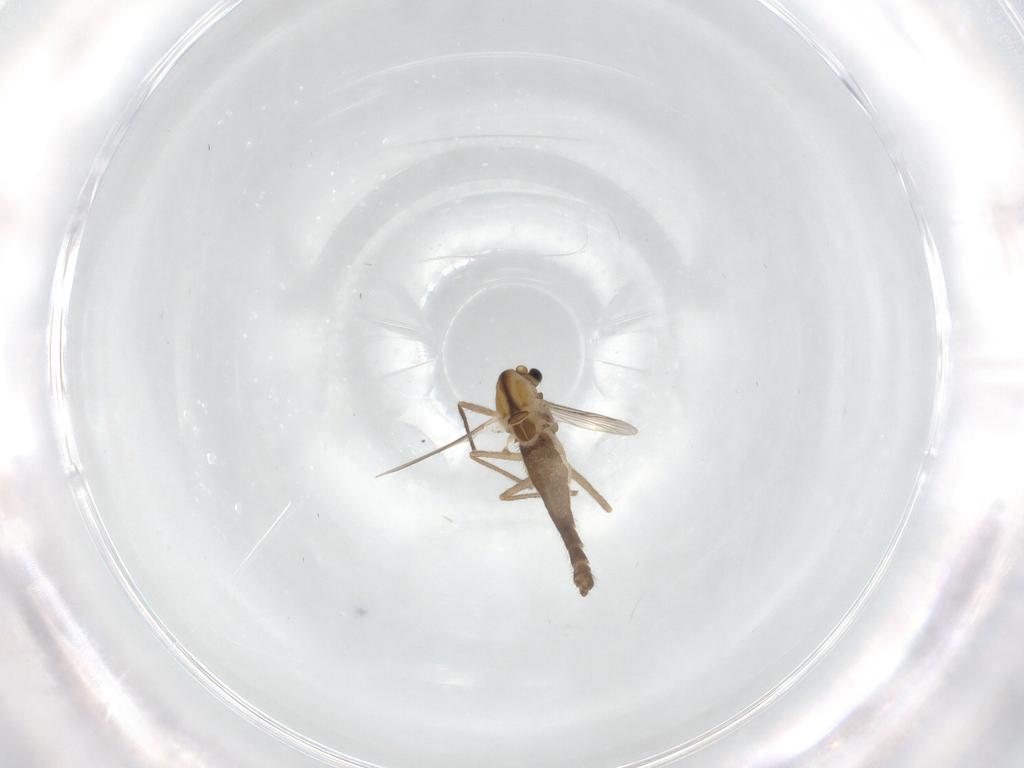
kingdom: Animalia
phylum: Arthropoda
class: Insecta
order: Diptera
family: Chironomidae
